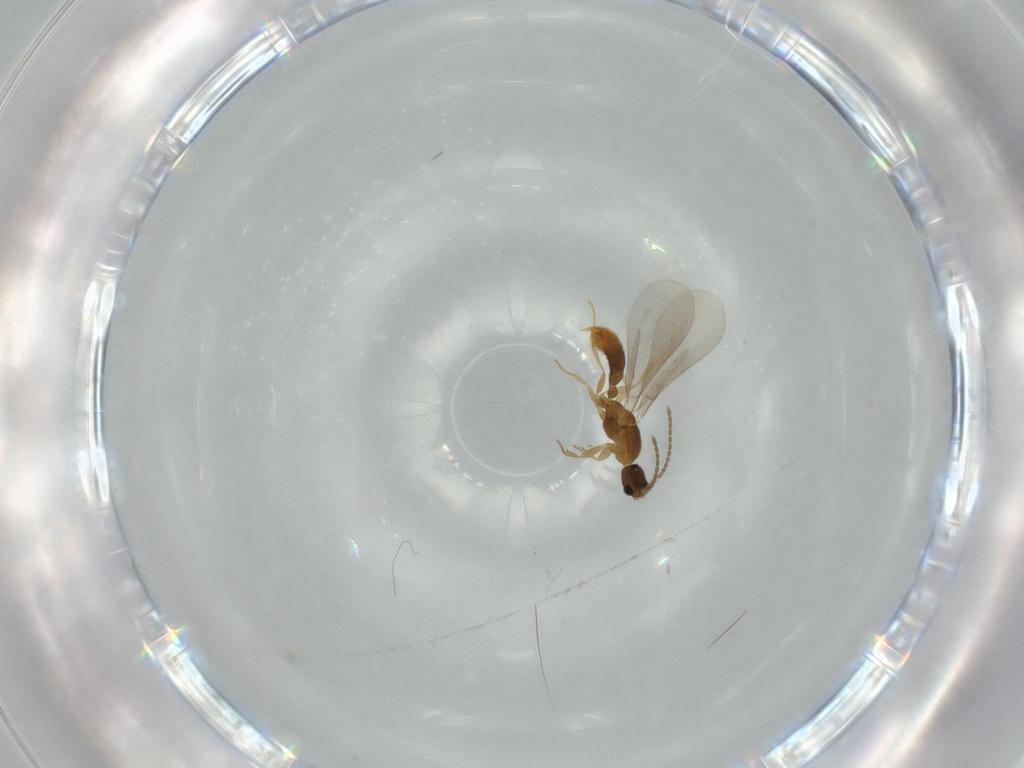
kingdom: Animalia
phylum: Arthropoda
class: Insecta
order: Hymenoptera
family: Formicidae
